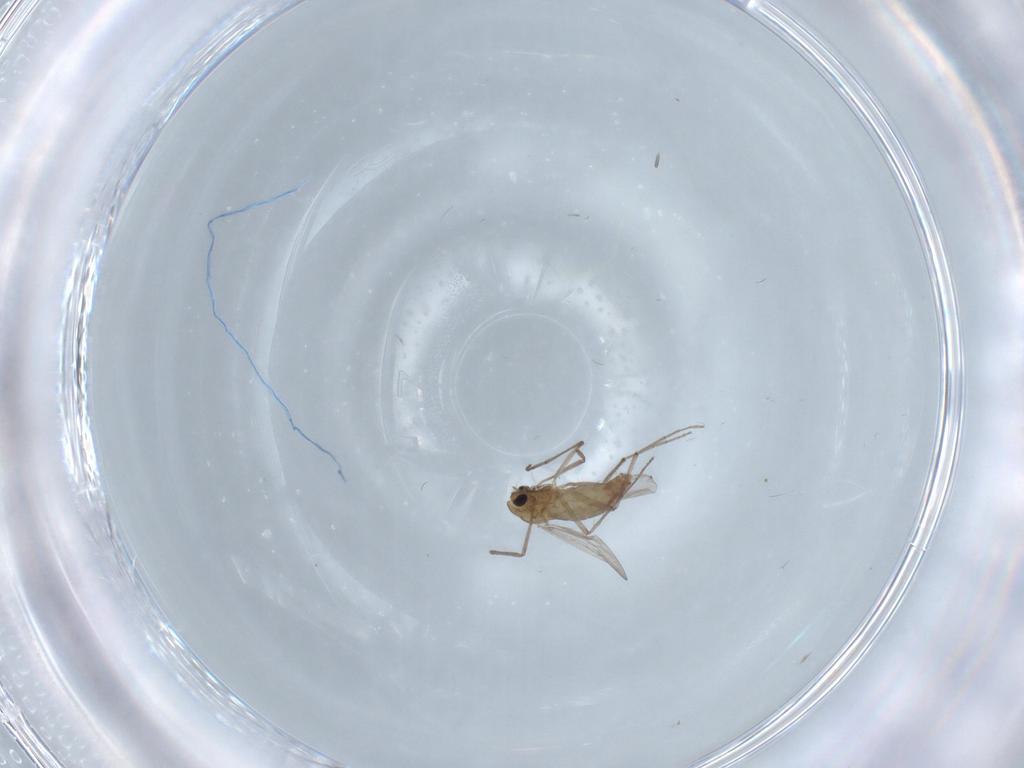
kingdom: Animalia
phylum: Arthropoda
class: Insecta
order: Diptera
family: Chironomidae
